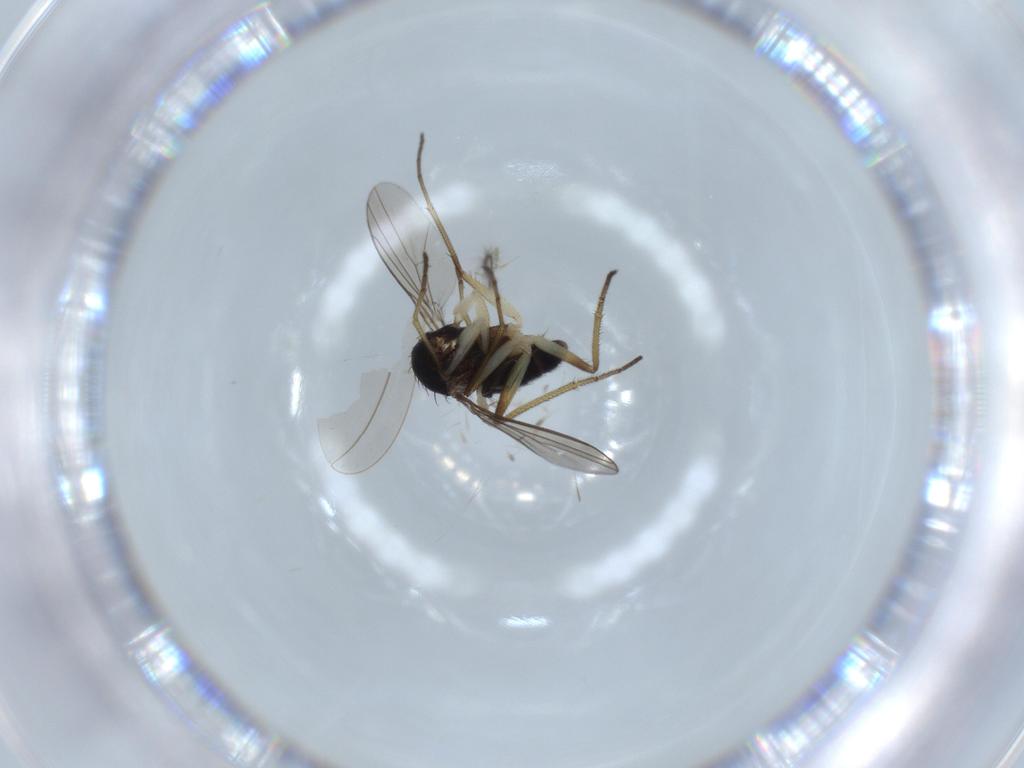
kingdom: Animalia
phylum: Arthropoda
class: Insecta
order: Diptera
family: Dolichopodidae
